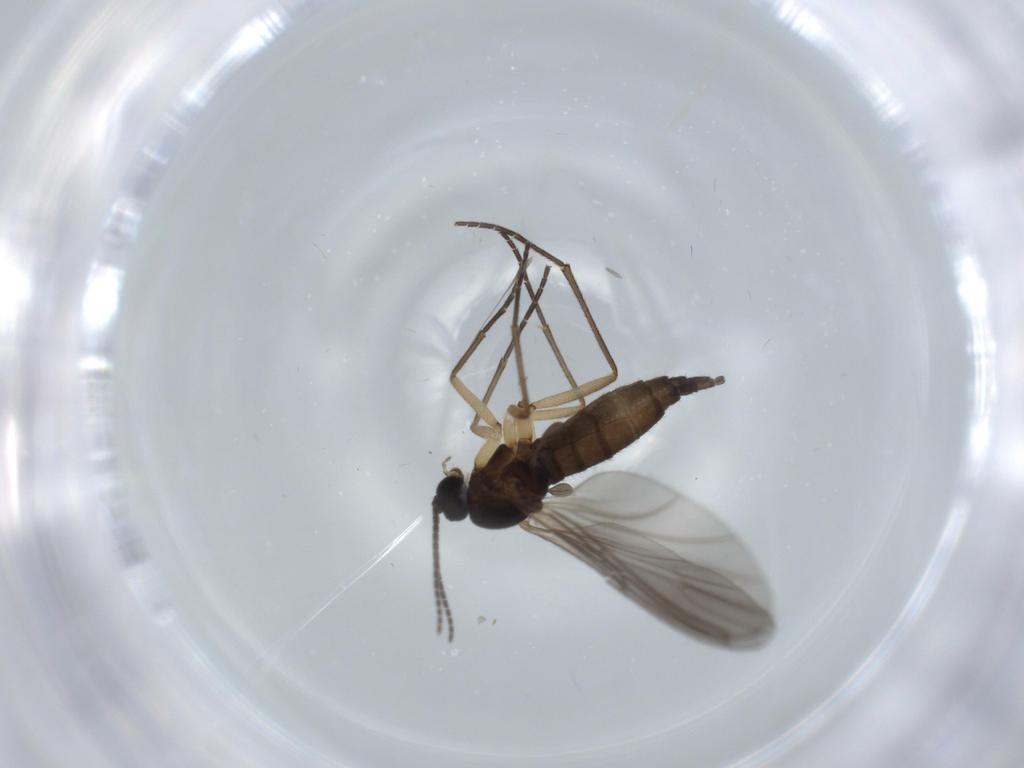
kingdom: Animalia
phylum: Arthropoda
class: Insecta
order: Diptera
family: Sciaridae
